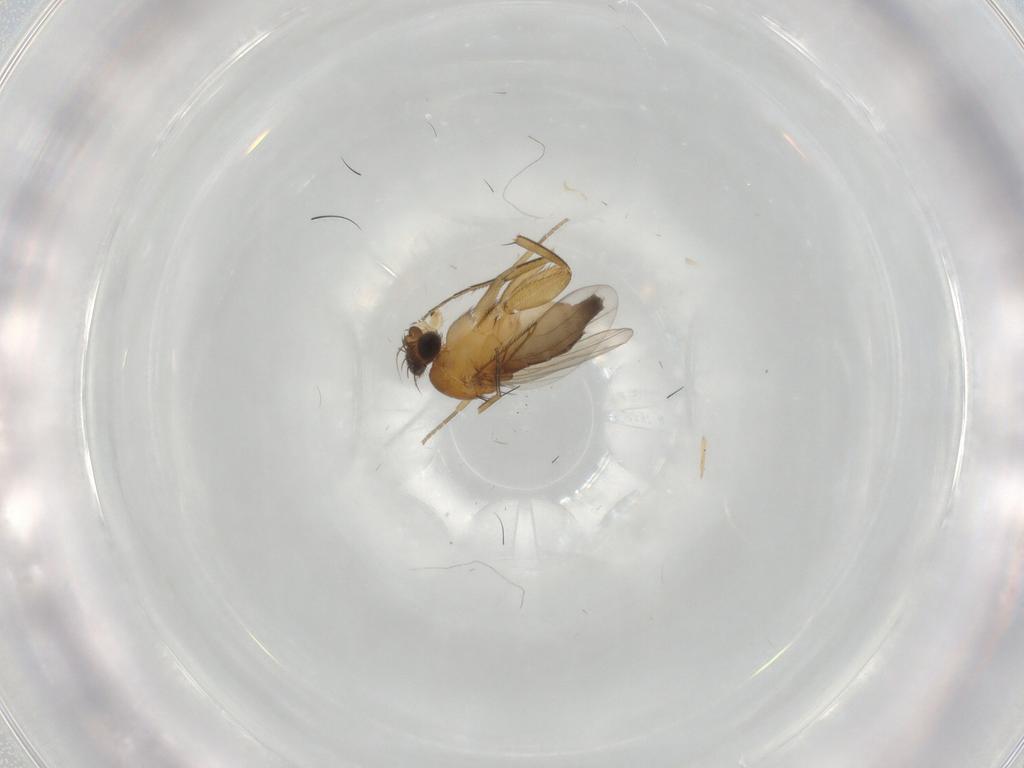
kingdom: Animalia
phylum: Arthropoda
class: Insecta
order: Diptera
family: Phoridae
